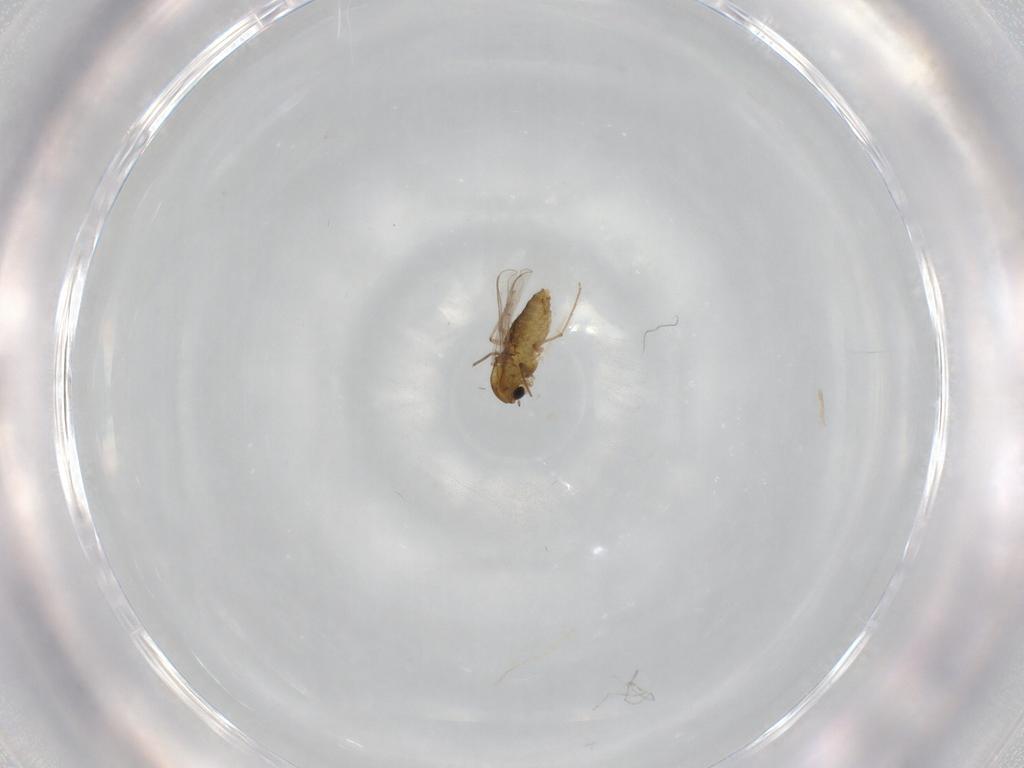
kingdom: Animalia
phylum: Arthropoda
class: Insecta
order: Diptera
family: Chironomidae
